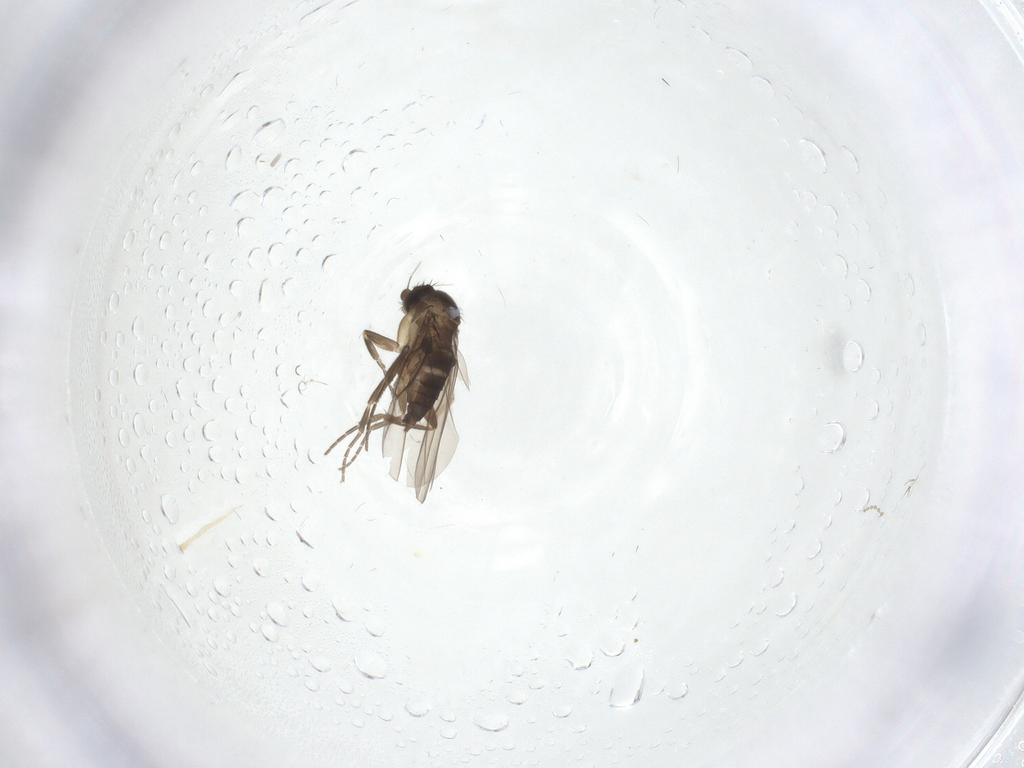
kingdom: Animalia
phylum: Arthropoda
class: Insecta
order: Diptera
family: Phoridae
